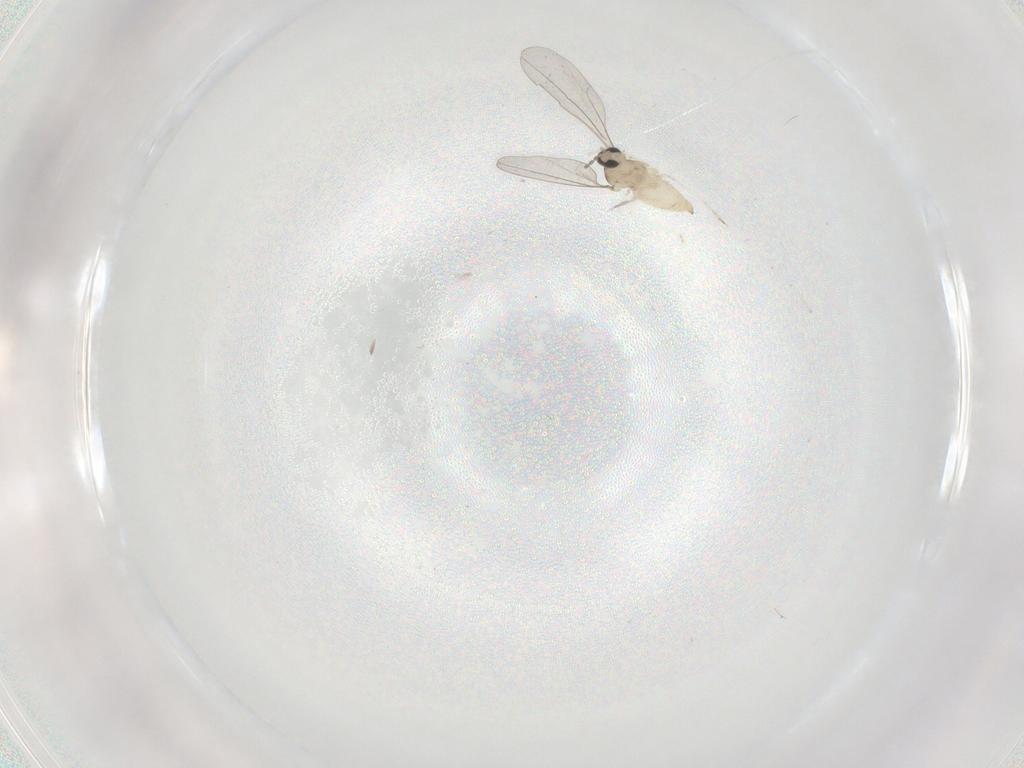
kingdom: Animalia
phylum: Arthropoda
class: Insecta
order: Diptera
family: Cecidomyiidae
